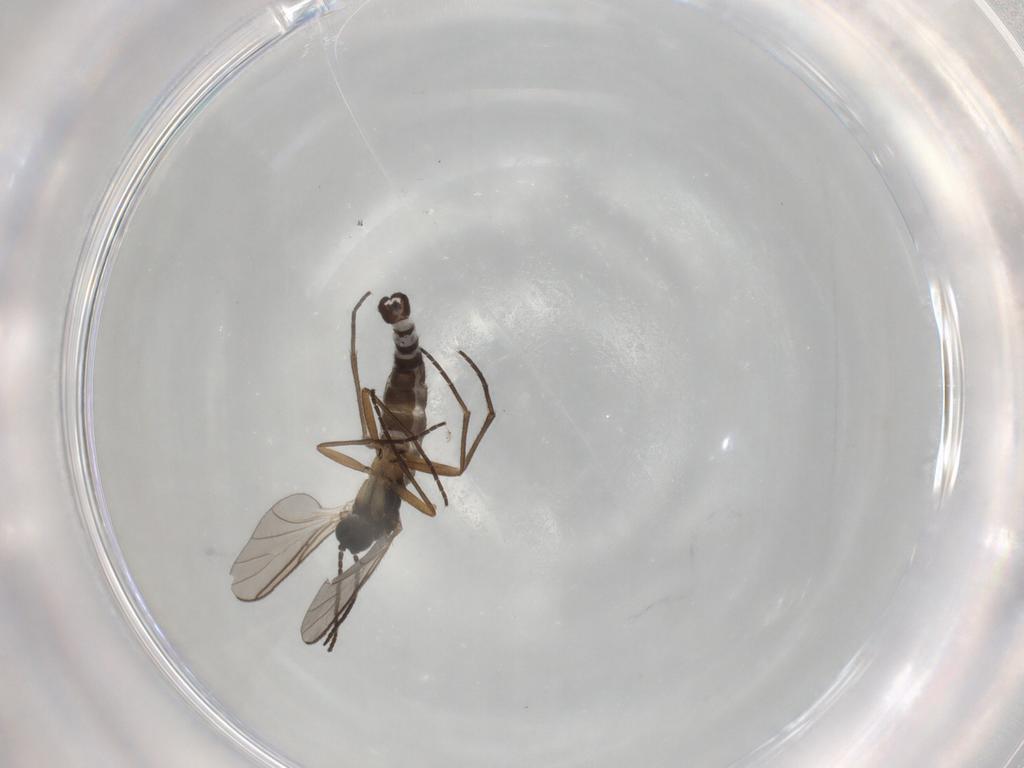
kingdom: Animalia
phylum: Arthropoda
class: Insecta
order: Diptera
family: Sciaridae
